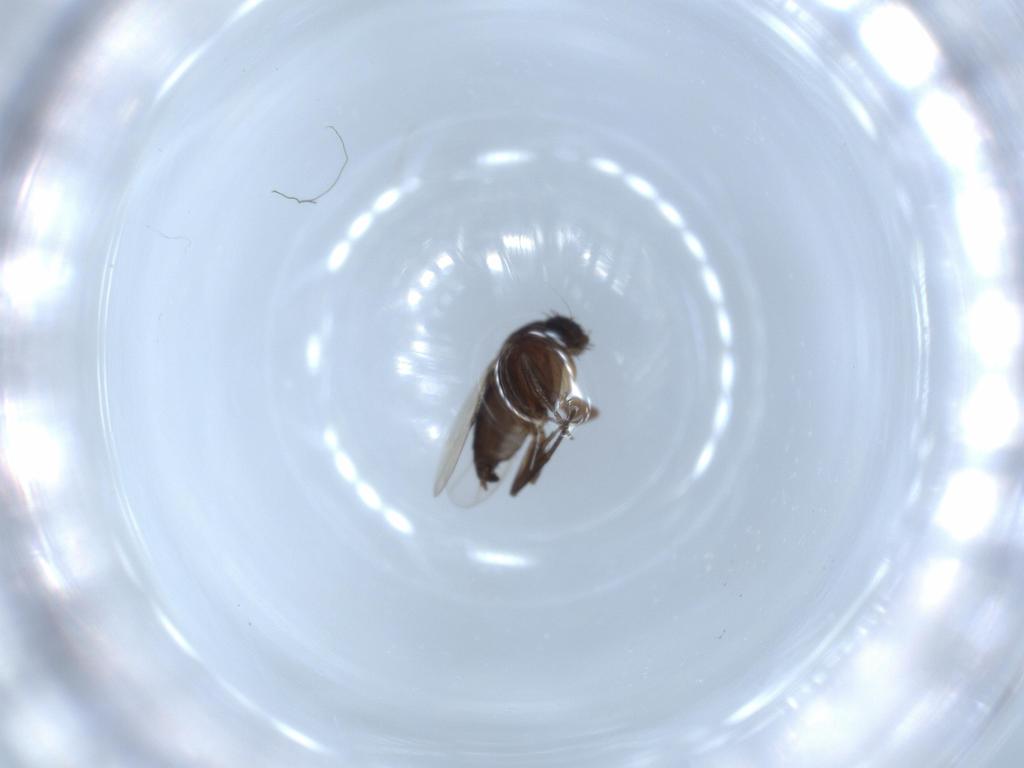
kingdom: Animalia
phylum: Arthropoda
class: Insecta
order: Diptera
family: Phoridae
